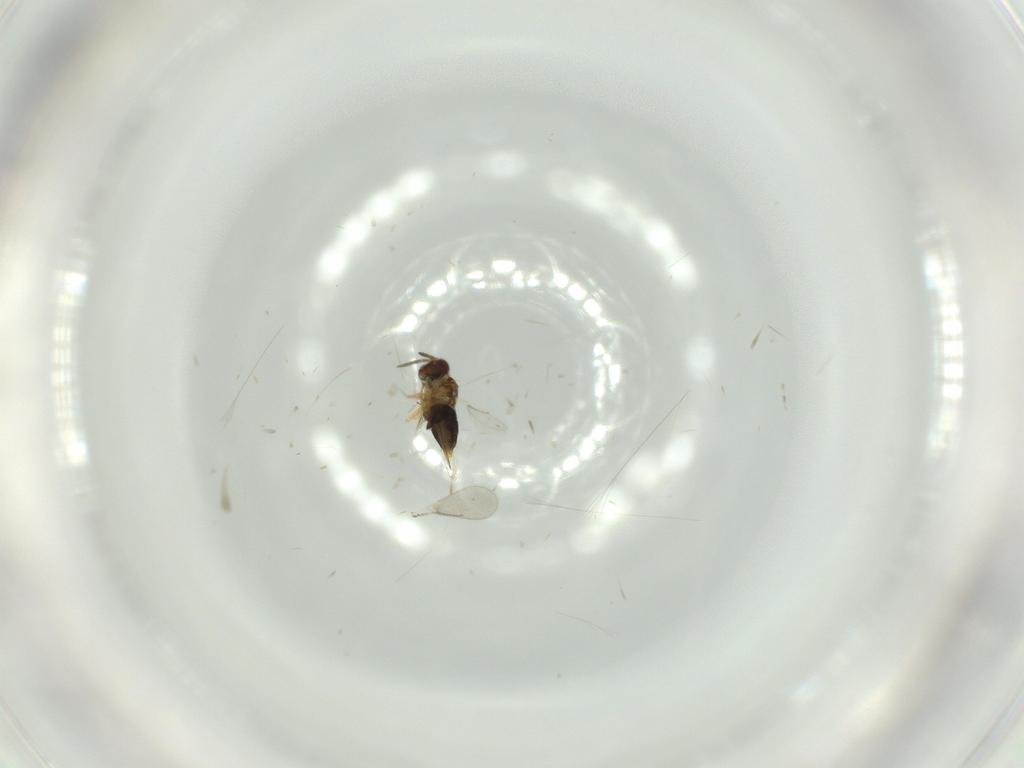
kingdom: Animalia
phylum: Arthropoda
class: Insecta
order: Hymenoptera
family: Aphelinidae
